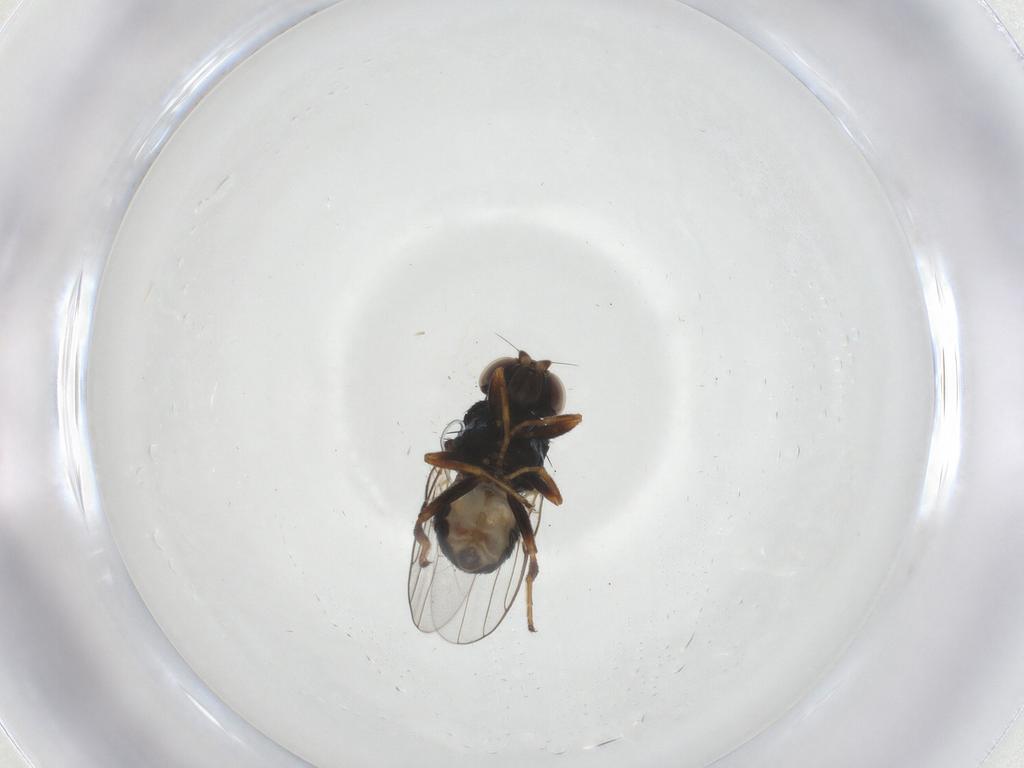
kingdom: Animalia
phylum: Arthropoda
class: Insecta
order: Diptera
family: Chloropidae
